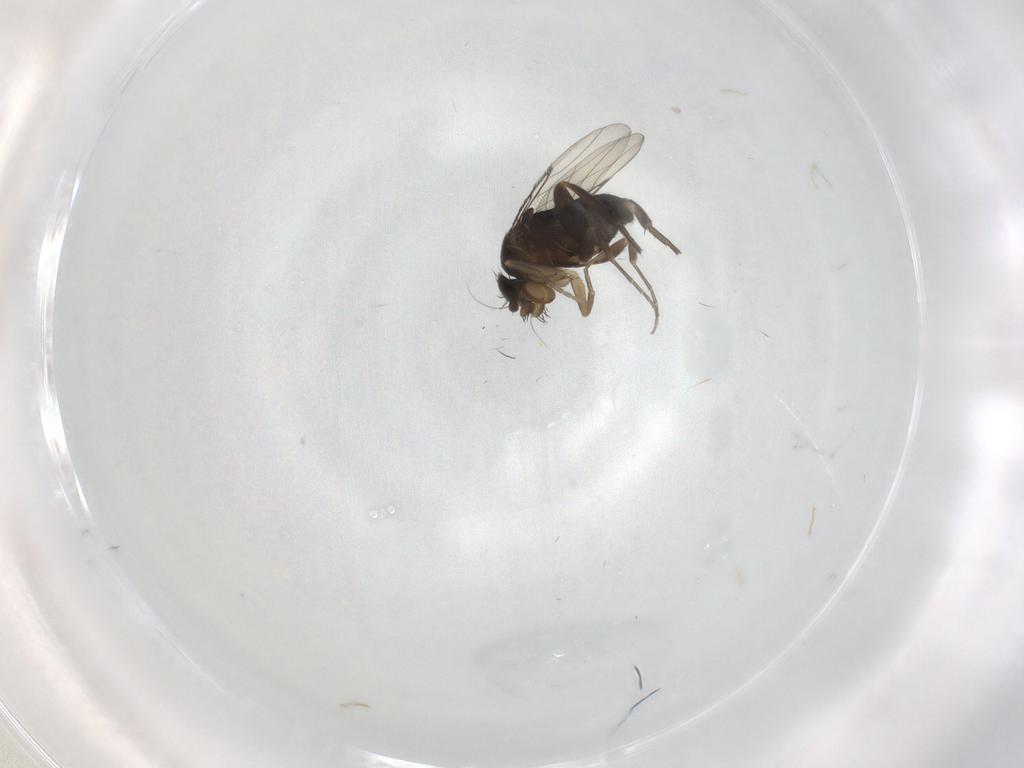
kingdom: Animalia
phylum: Arthropoda
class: Insecta
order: Diptera
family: Phoridae
